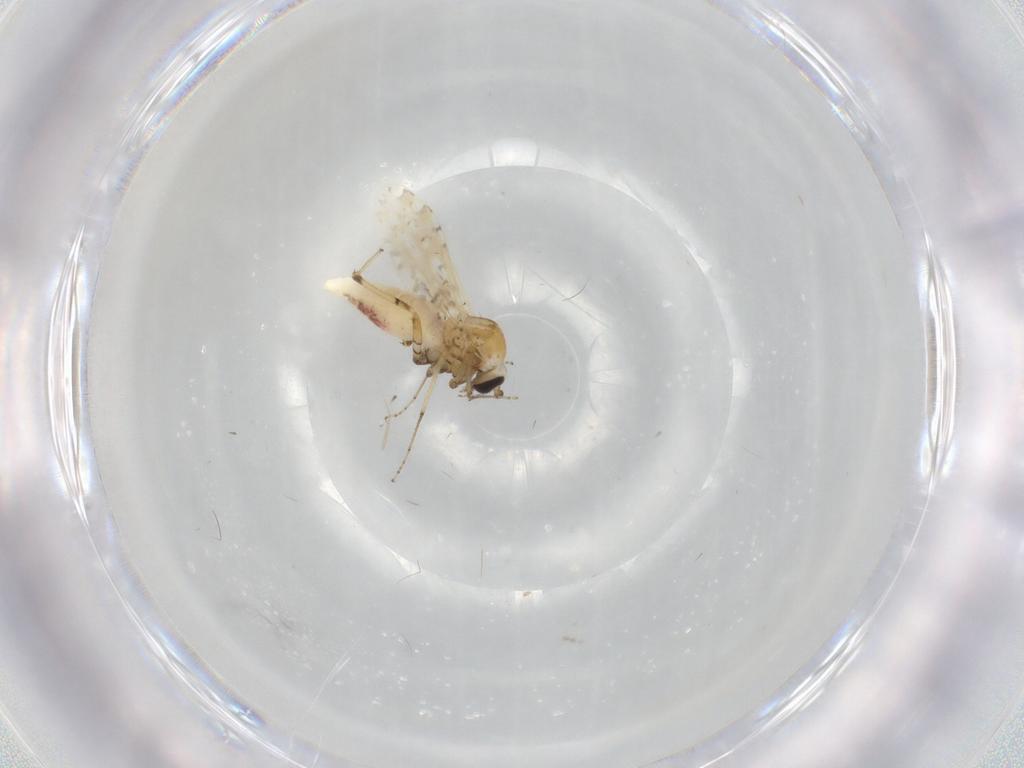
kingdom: Animalia
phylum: Arthropoda
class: Insecta
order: Diptera
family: Ceratopogonidae
